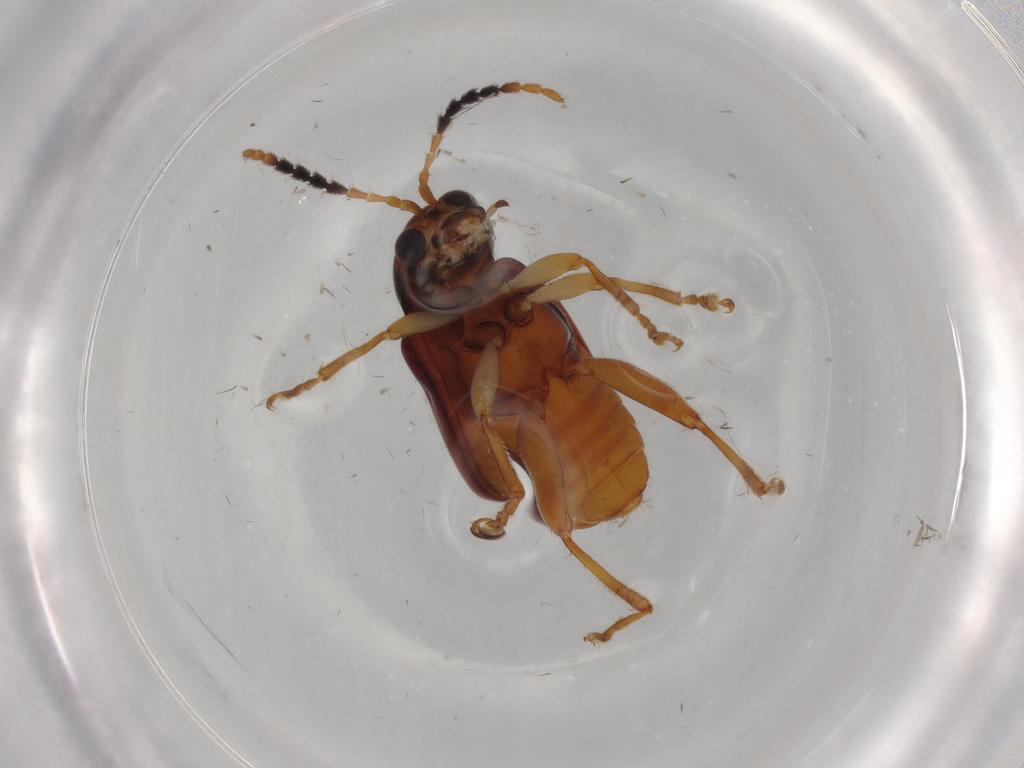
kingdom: Animalia
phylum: Arthropoda
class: Insecta
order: Coleoptera
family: Chrysomelidae
